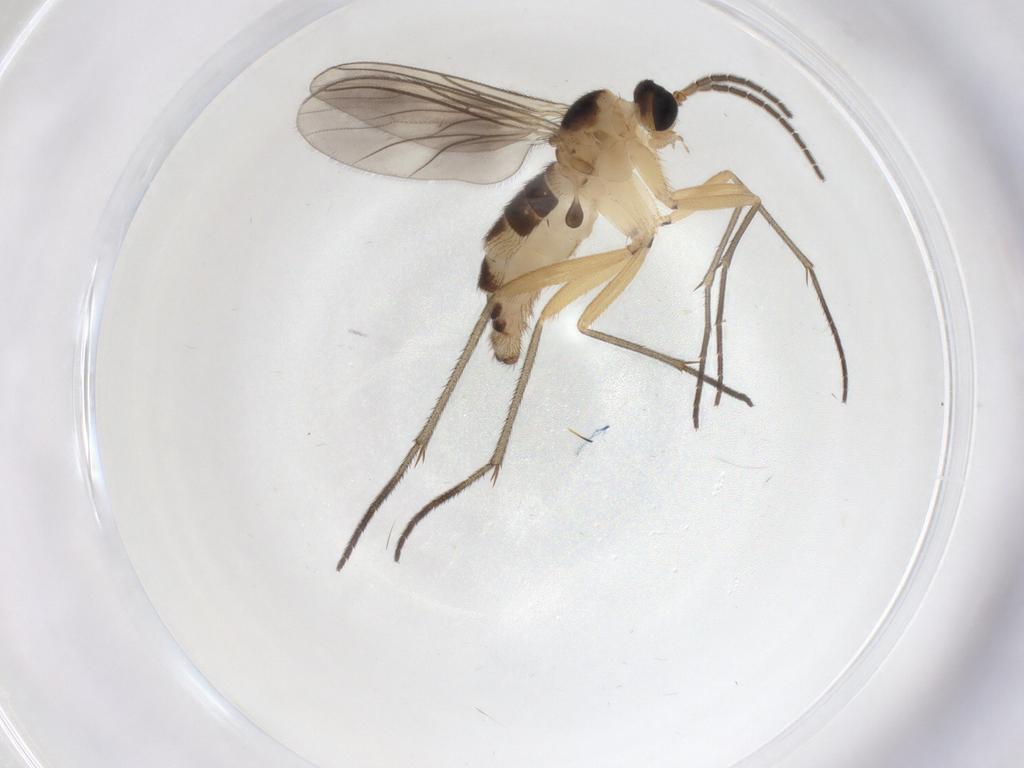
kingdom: Animalia
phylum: Arthropoda
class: Insecta
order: Diptera
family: Sciaridae
